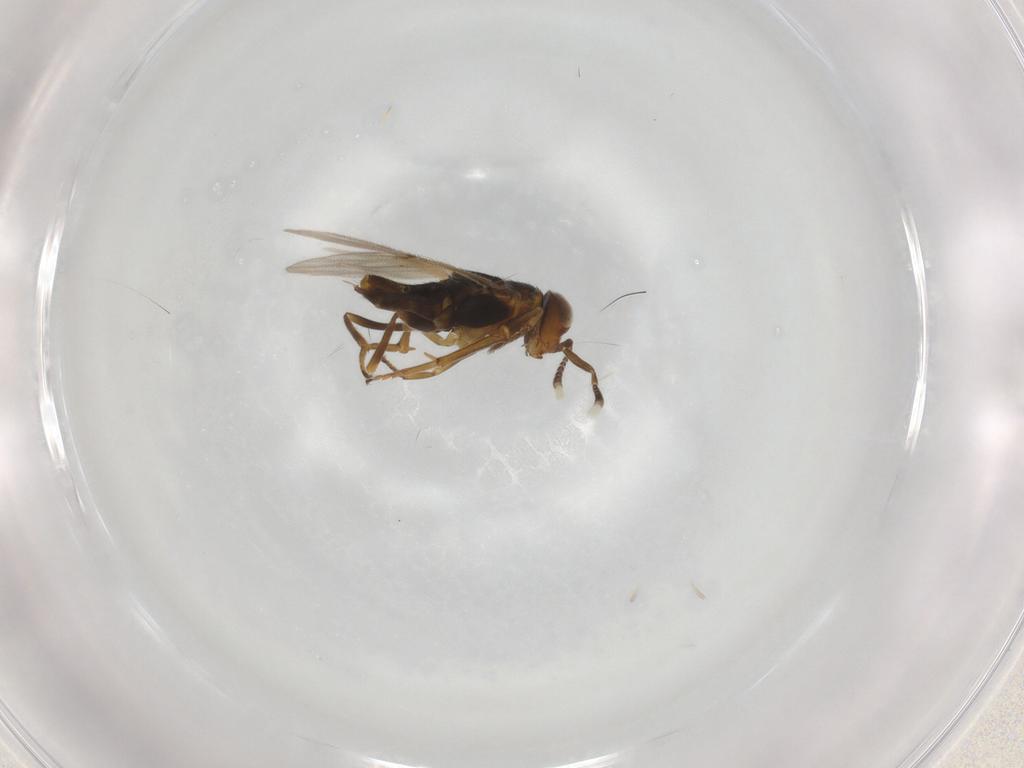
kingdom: Animalia
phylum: Arthropoda
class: Insecta
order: Hymenoptera
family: Encyrtidae
